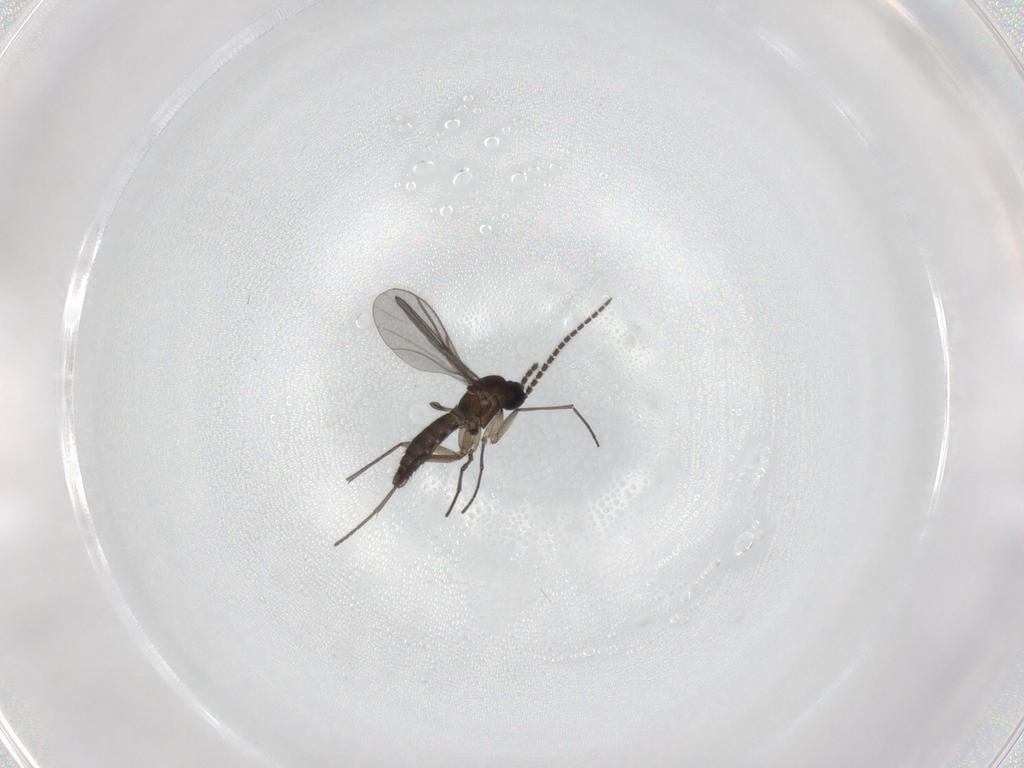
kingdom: Animalia
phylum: Arthropoda
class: Insecta
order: Diptera
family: Sciaridae
